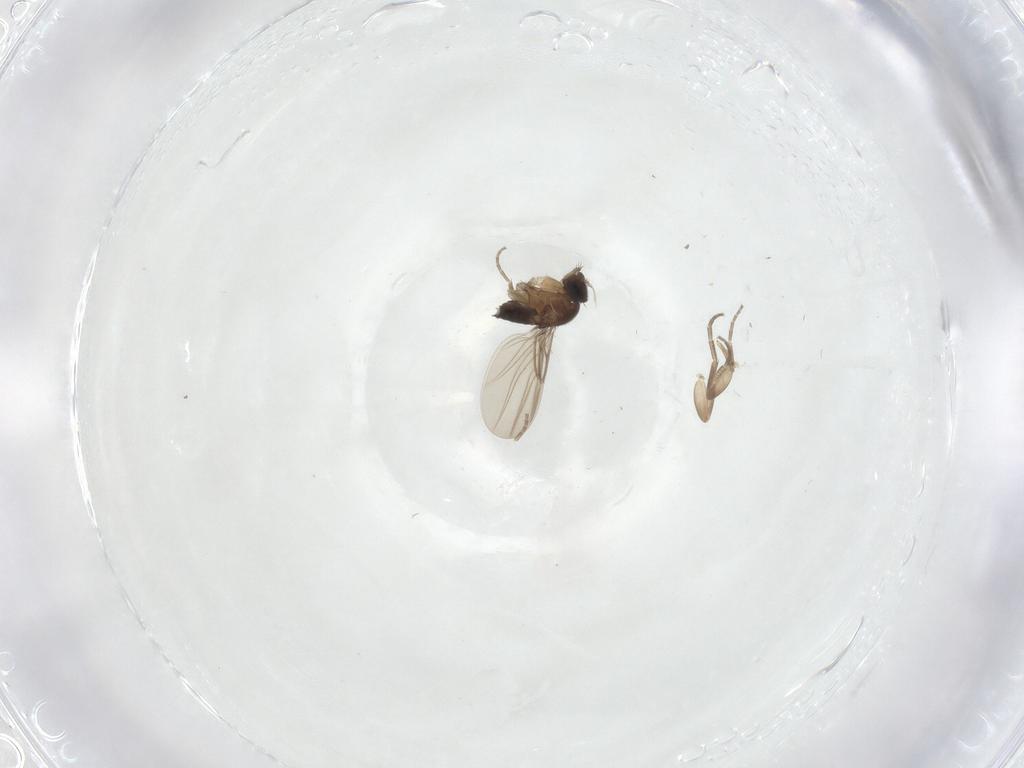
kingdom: Animalia
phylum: Arthropoda
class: Insecta
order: Diptera
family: Phoridae
